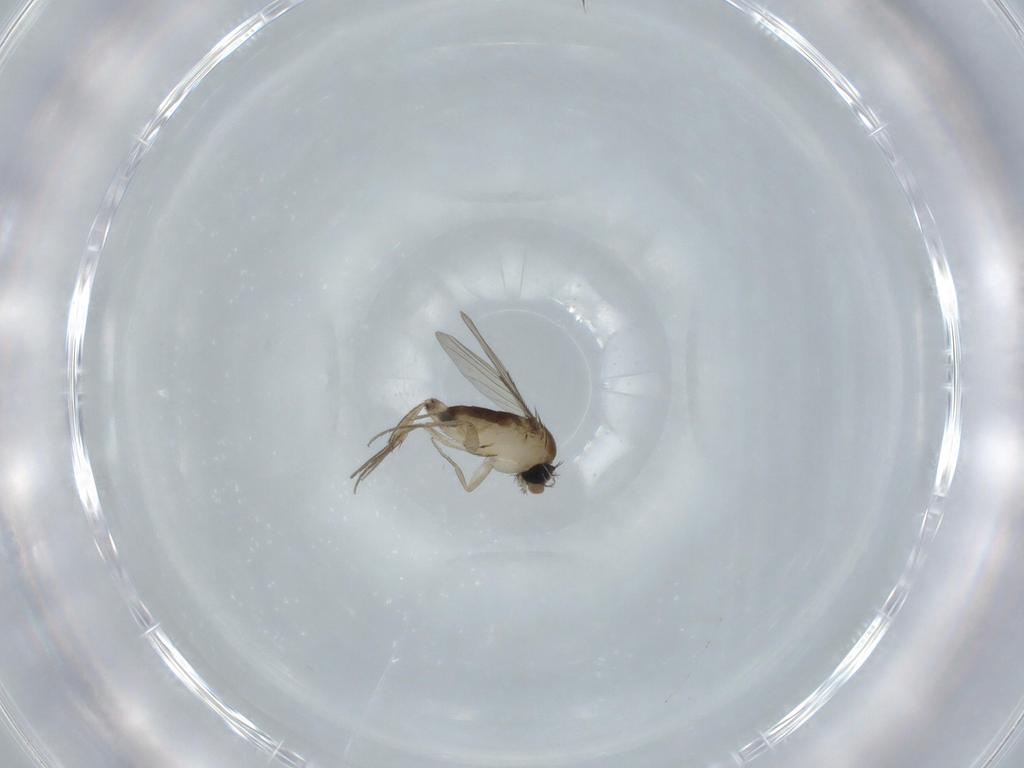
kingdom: Animalia
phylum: Arthropoda
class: Insecta
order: Diptera
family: Phoridae
